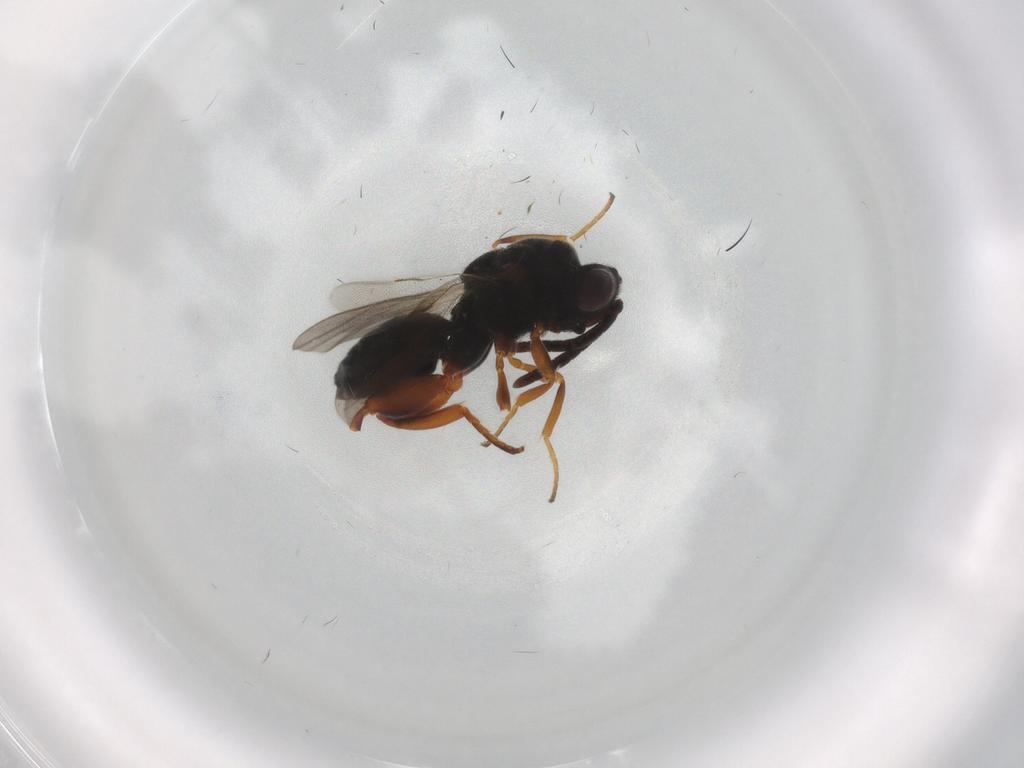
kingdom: Animalia
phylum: Arthropoda
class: Insecta
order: Hymenoptera
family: Chalcididae
